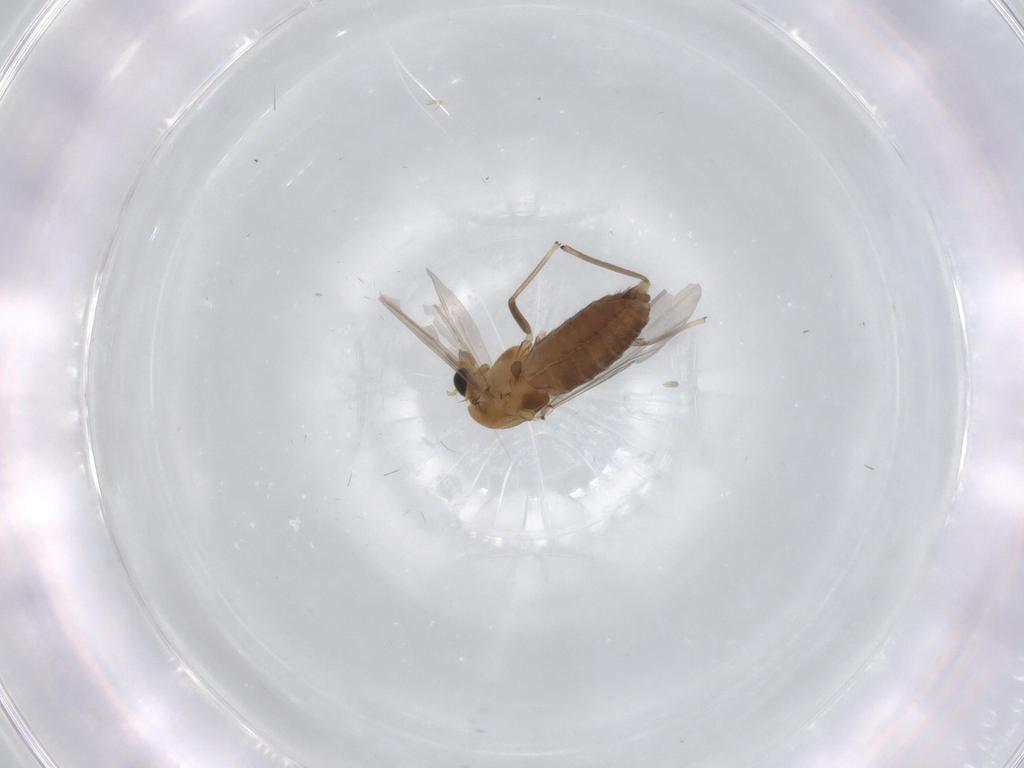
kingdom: Animalia
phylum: Arthropoda
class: Insecta
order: Diptera
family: Chironomidae
